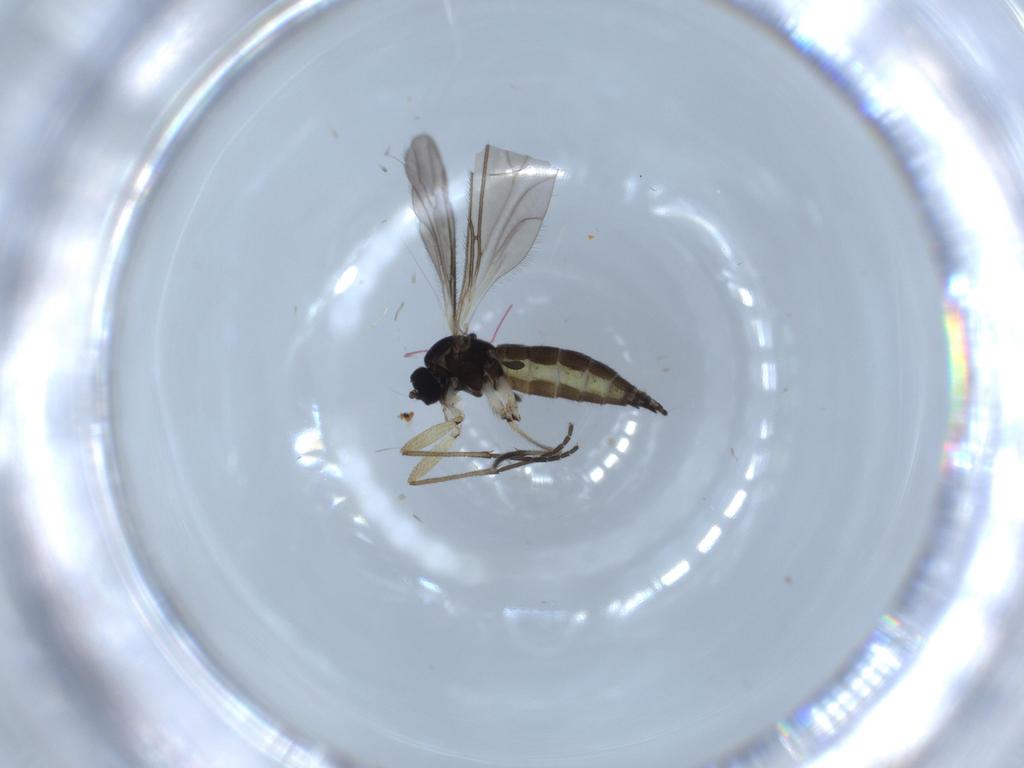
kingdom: Animalia
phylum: Arthropoda
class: Insecta
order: Diptera
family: Sciaridae
